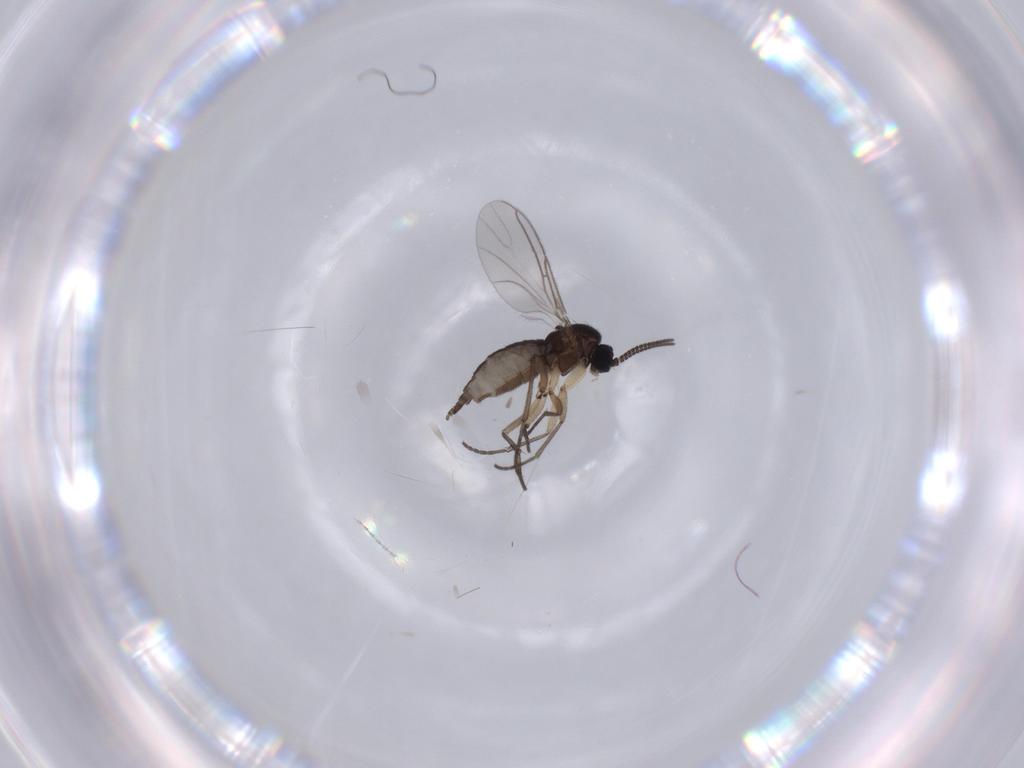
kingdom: Animalia
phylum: Arthropoda
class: Insecta
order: Diptera
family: Sciaridae
